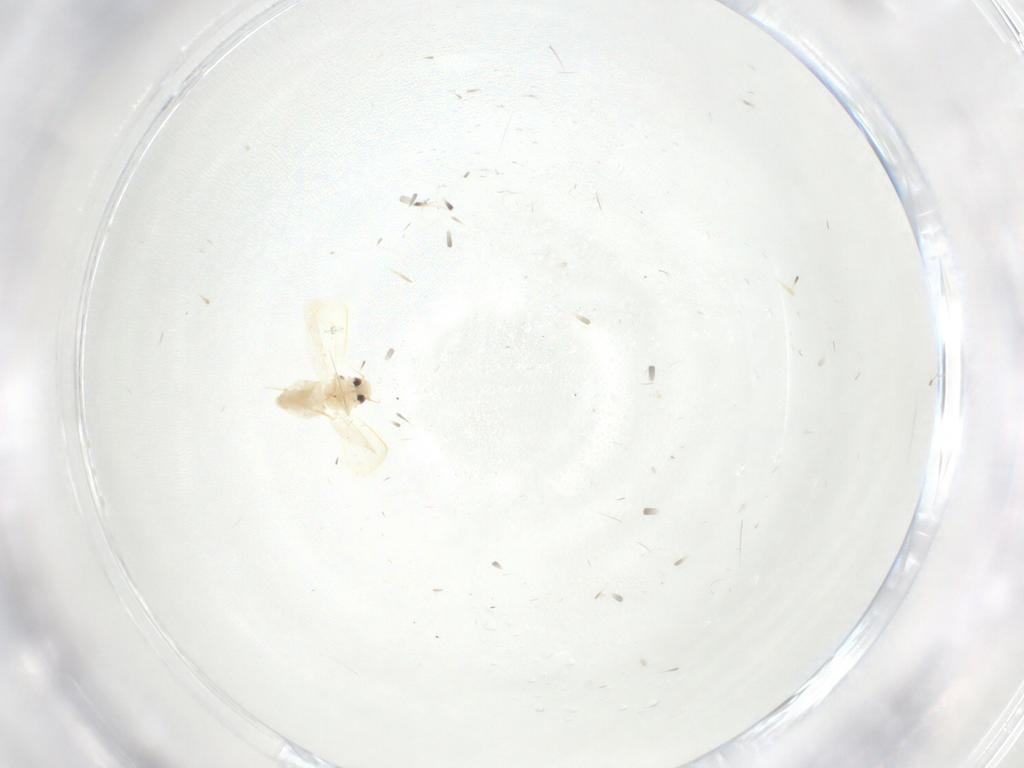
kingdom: Animalia
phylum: Arthropoda
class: Insecta
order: Hemiptera
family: Aleyrodidae
